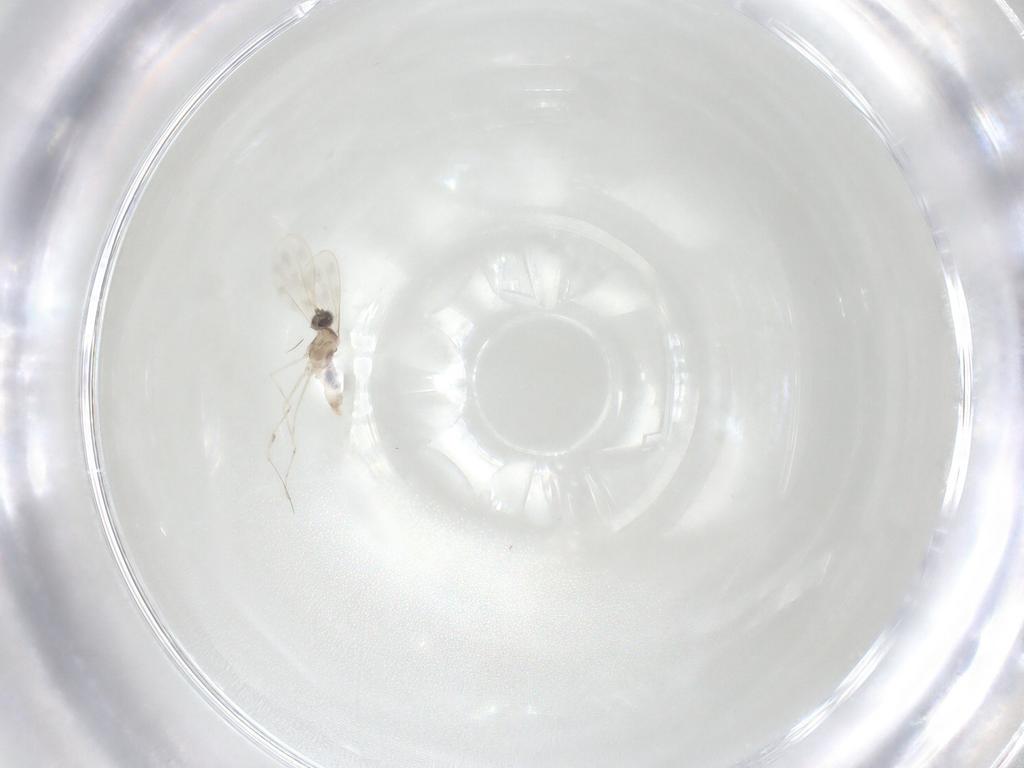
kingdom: Animalia
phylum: Arthropoda
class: Insecta
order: Diptera
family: Cecidomyiidae
